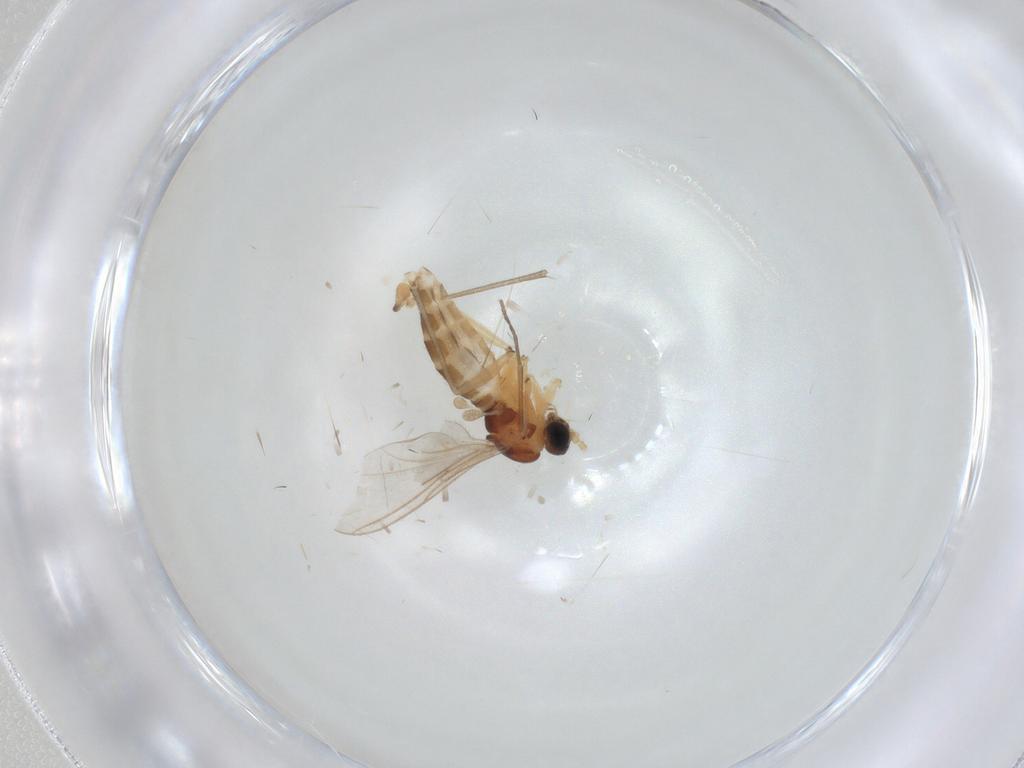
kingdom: Animalia
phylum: Arthropoda
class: Insecta
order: Diptera
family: Sciaridae
